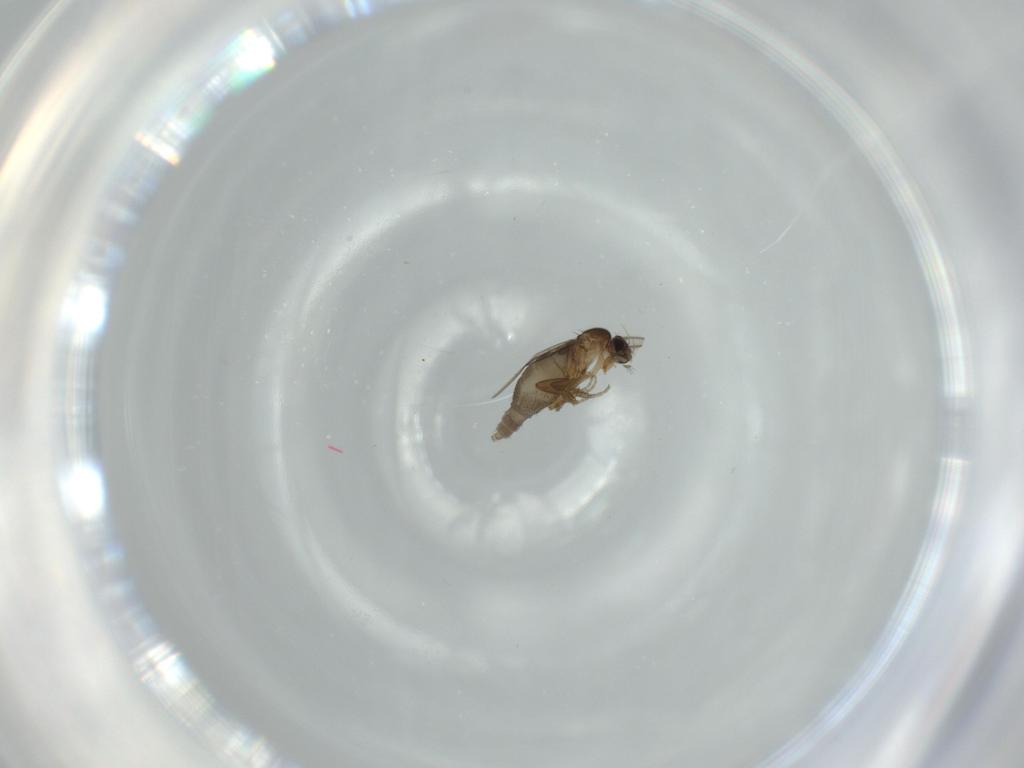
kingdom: Animalia
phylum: Arthropoda
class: Insecta
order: Diptera
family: Phoridae
